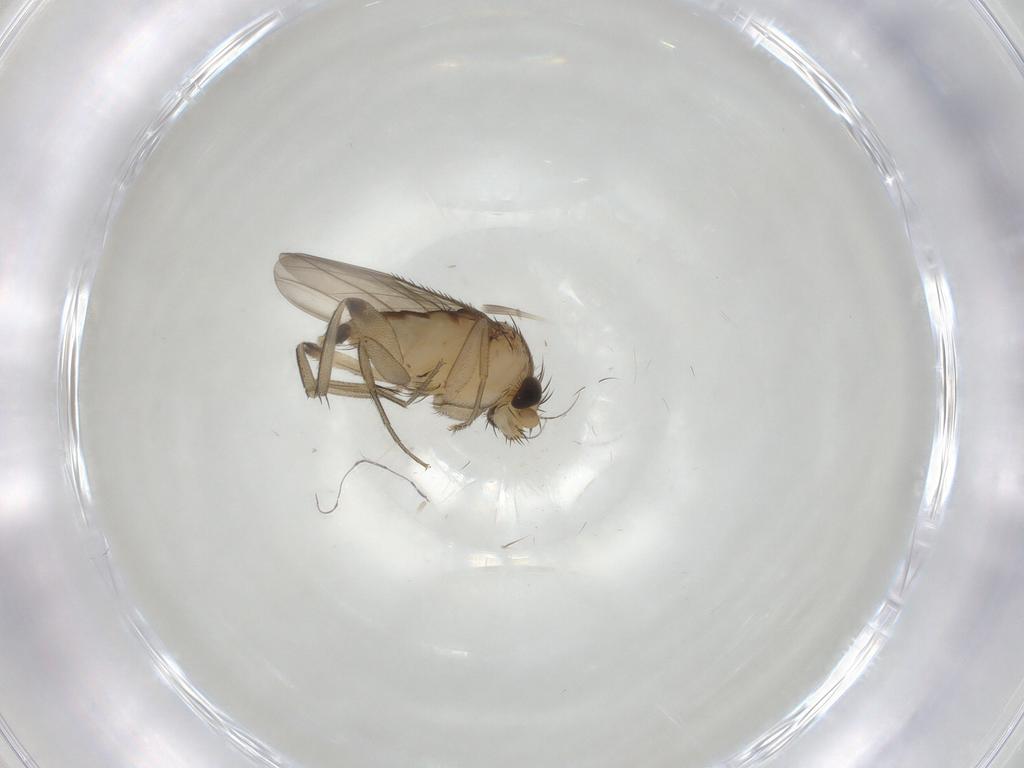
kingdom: Animalia
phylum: Arthropoda
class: Insecta
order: Diptera
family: Phoridae
